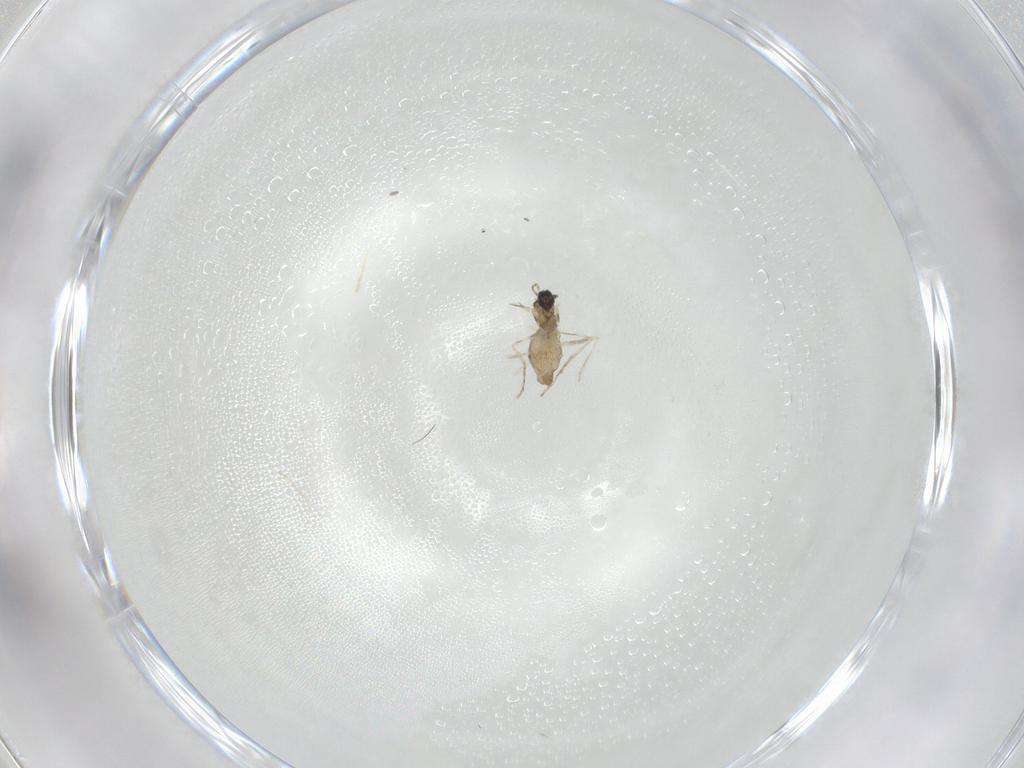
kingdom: Animalia
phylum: Arthropoda
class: Insecta
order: Diptera
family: Cecidomyiidae
